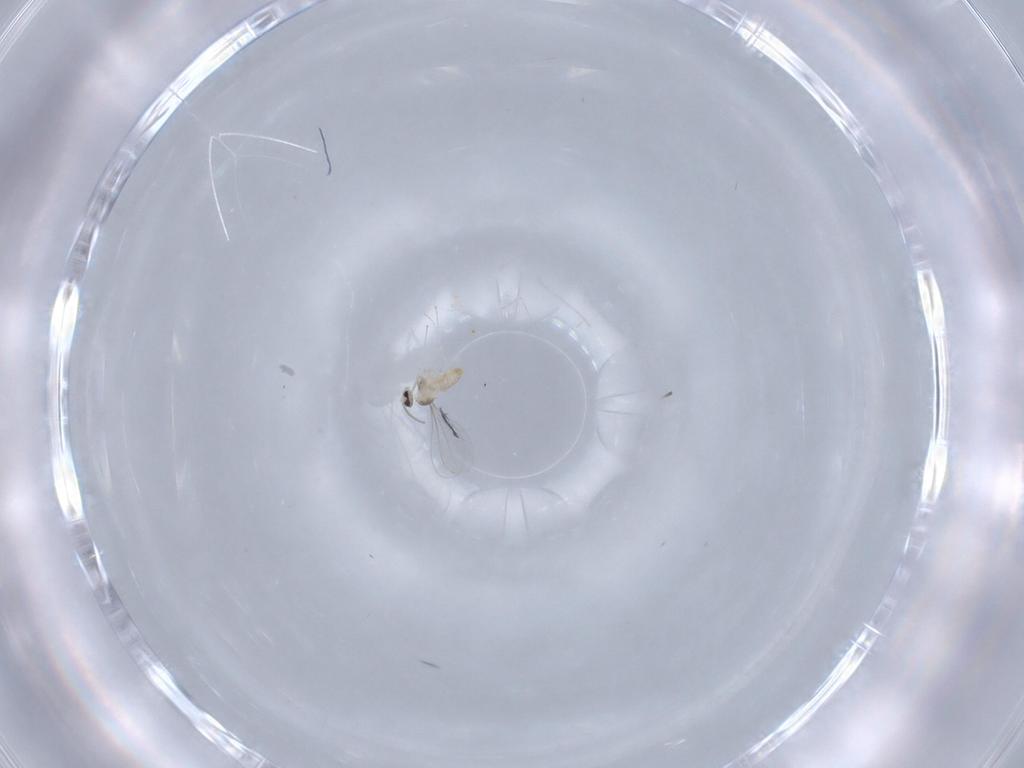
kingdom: Animalia
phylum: Arthropoda
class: Insecta
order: Diptera
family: Cecidomyiidae
